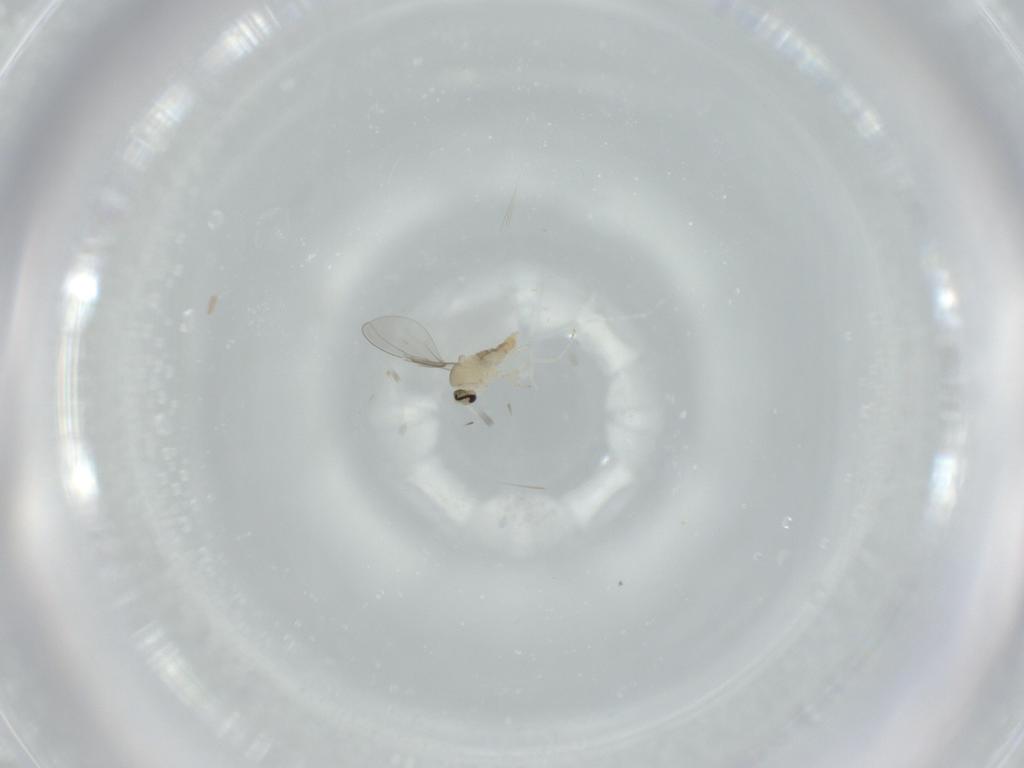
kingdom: Animalia
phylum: Arthropoda
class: Insecta
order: Diptera
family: Cecidomyiidae
